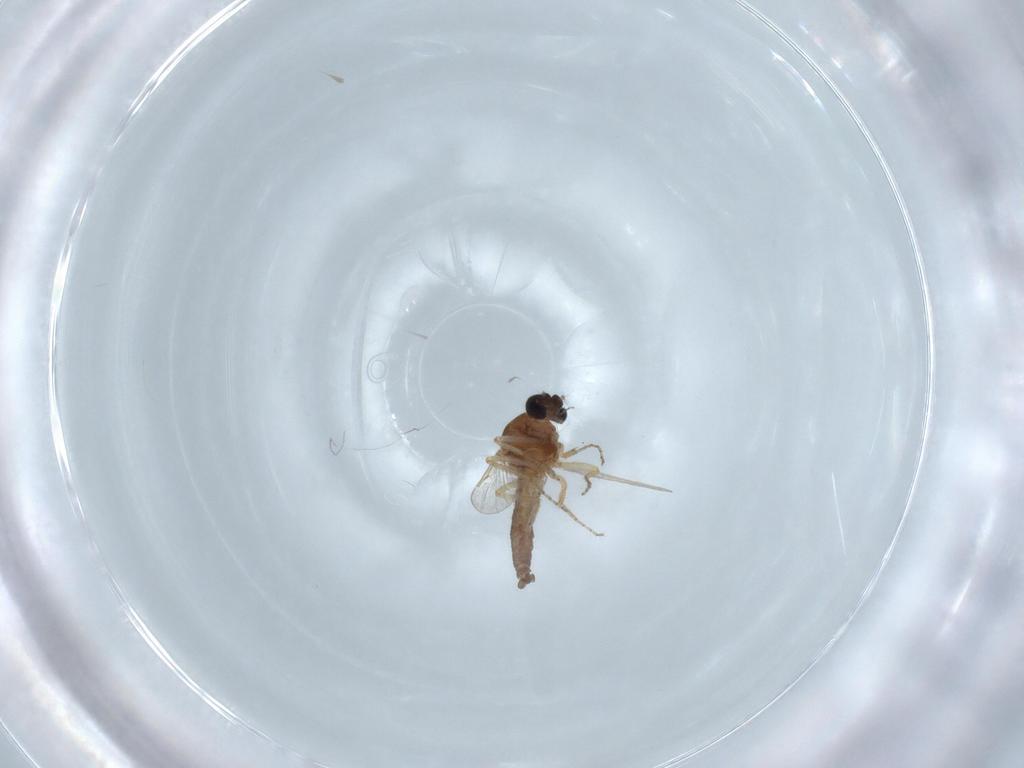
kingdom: Animalia
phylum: Arthropoda
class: Insecta
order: Diptera
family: Ceratopogonidae
